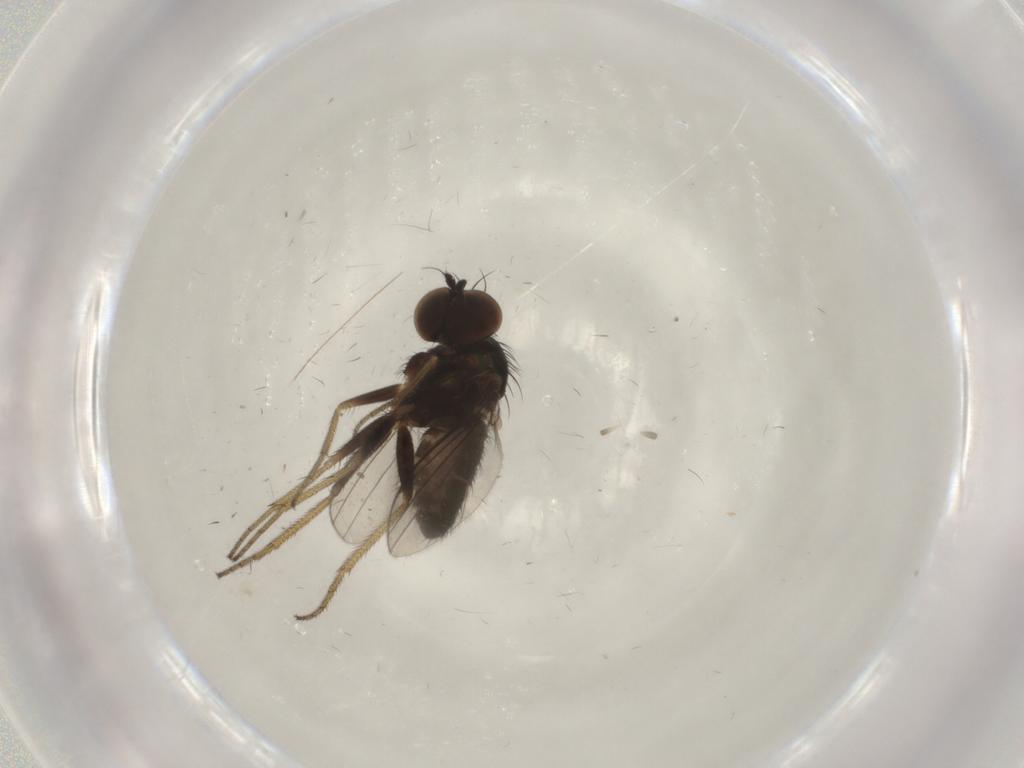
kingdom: Animalia
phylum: Arthropoda
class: Insecta
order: Diptera
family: Dolichopodidae
